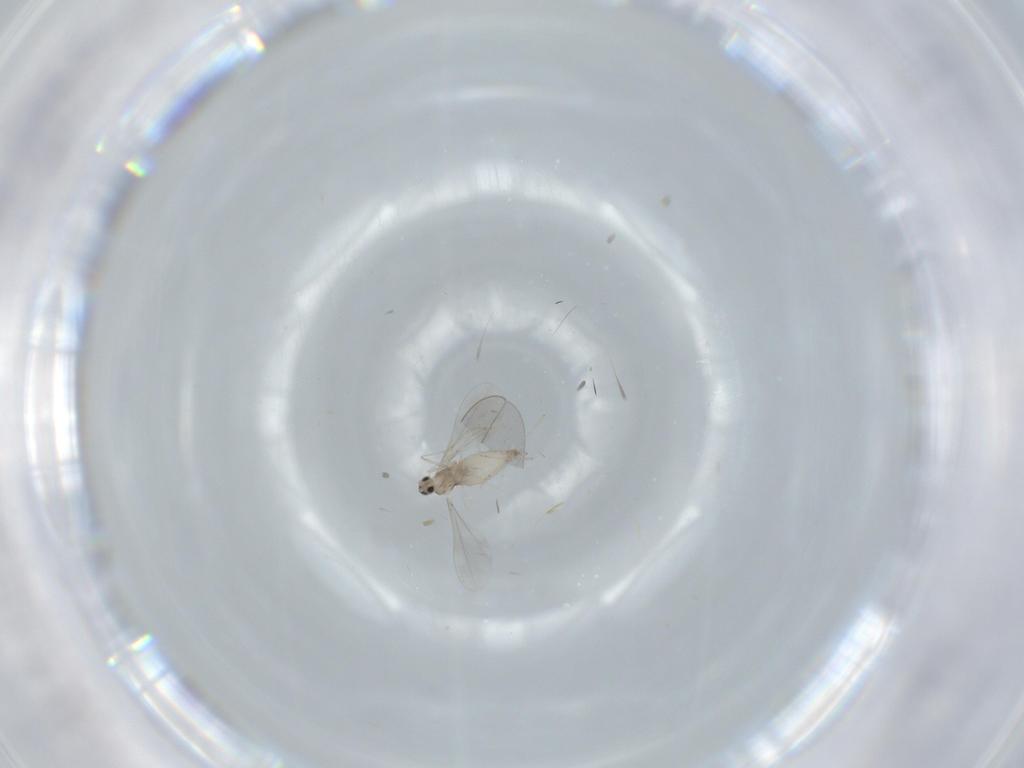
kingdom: Animalia
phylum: Arthropoda
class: Insecta
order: Diptera
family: Cecidomyiidae
